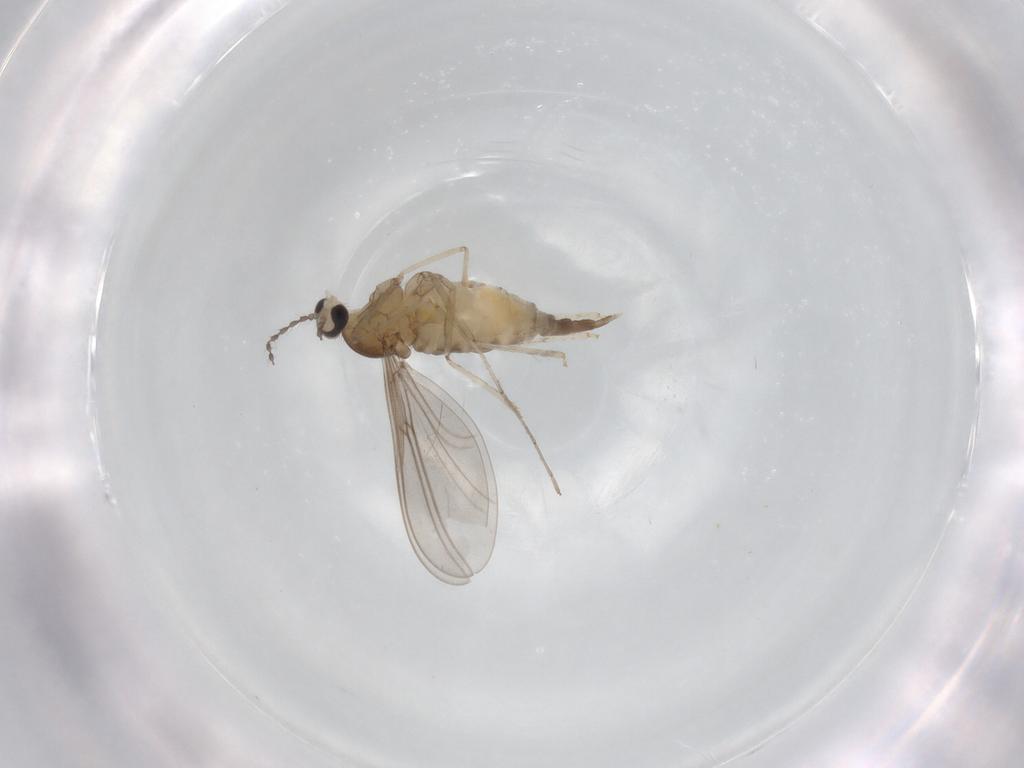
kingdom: Animalia
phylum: Arthropoda
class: Insecta
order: Diptera
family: Cecidomyiidae
